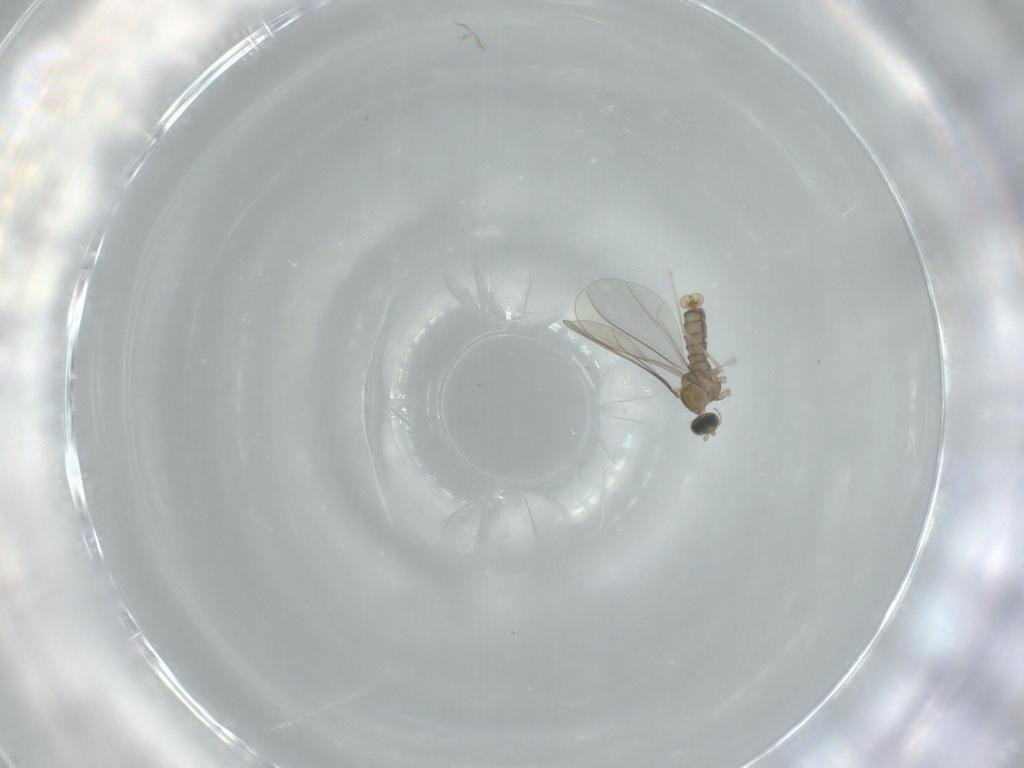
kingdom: Animalia
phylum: Arthropoda
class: Insecta
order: Diptera
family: Cecidomyiidae
